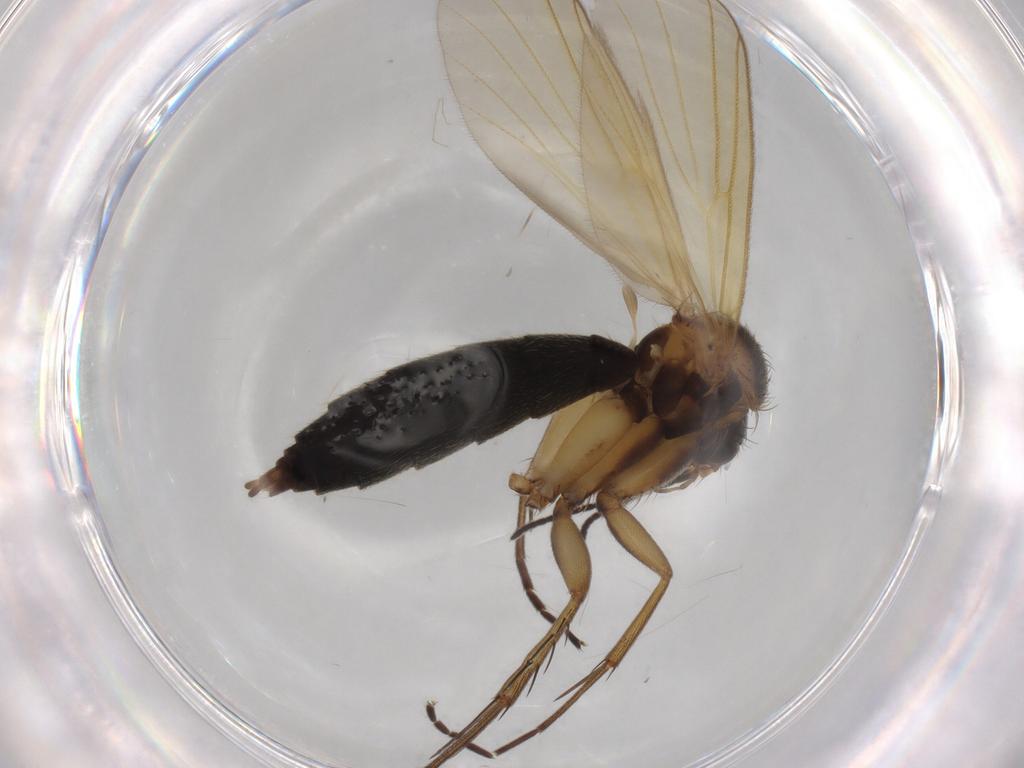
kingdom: Animalia
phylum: Arthropoda
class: Insecta
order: Diptera
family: Mycetophilidae
